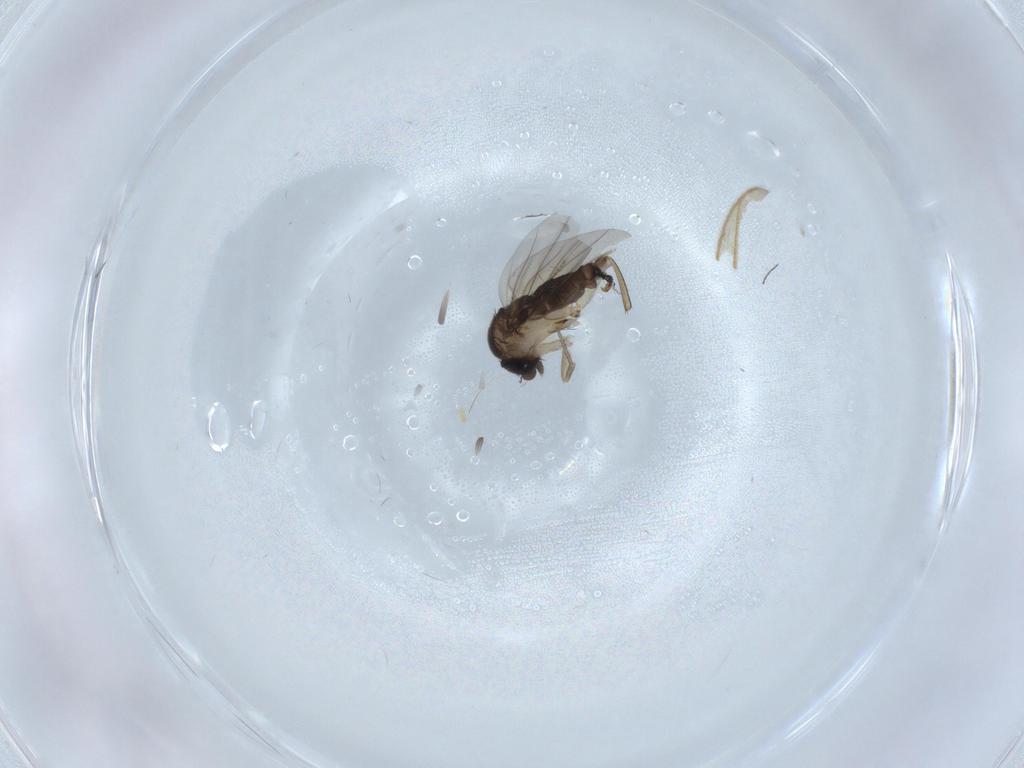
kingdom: Animalia
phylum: Arthropoda
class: Insecta
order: Diptera
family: Phoridae
